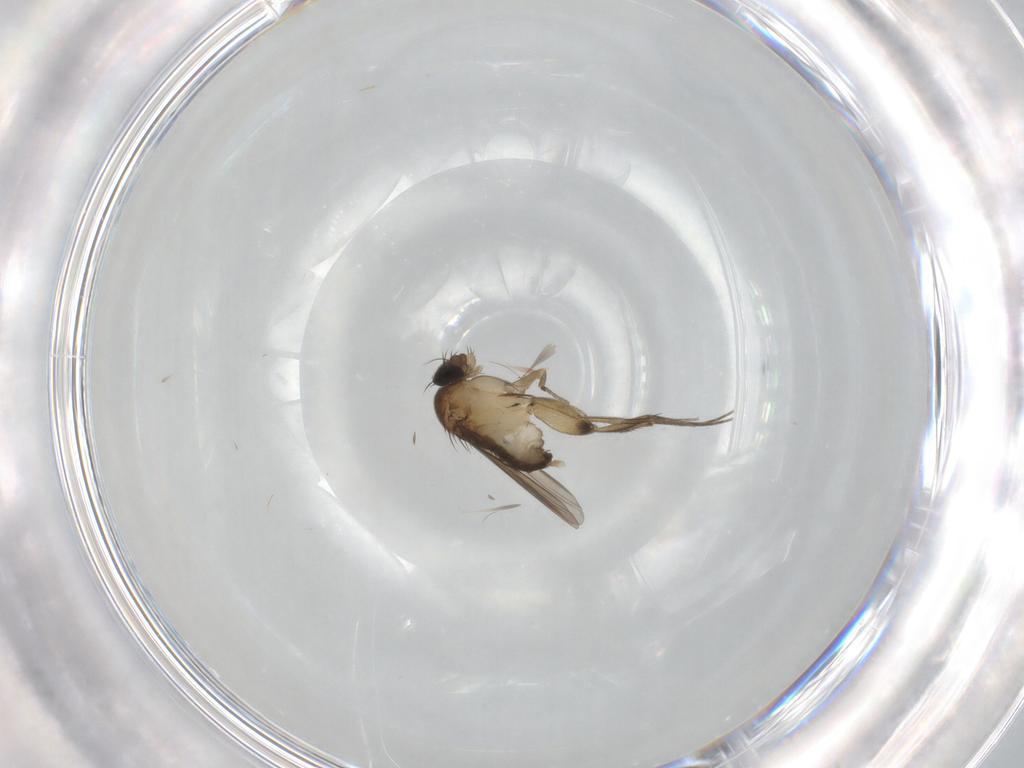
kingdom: Animalia
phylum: Arthropoda
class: Insecta
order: Diptera
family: Phoridae
